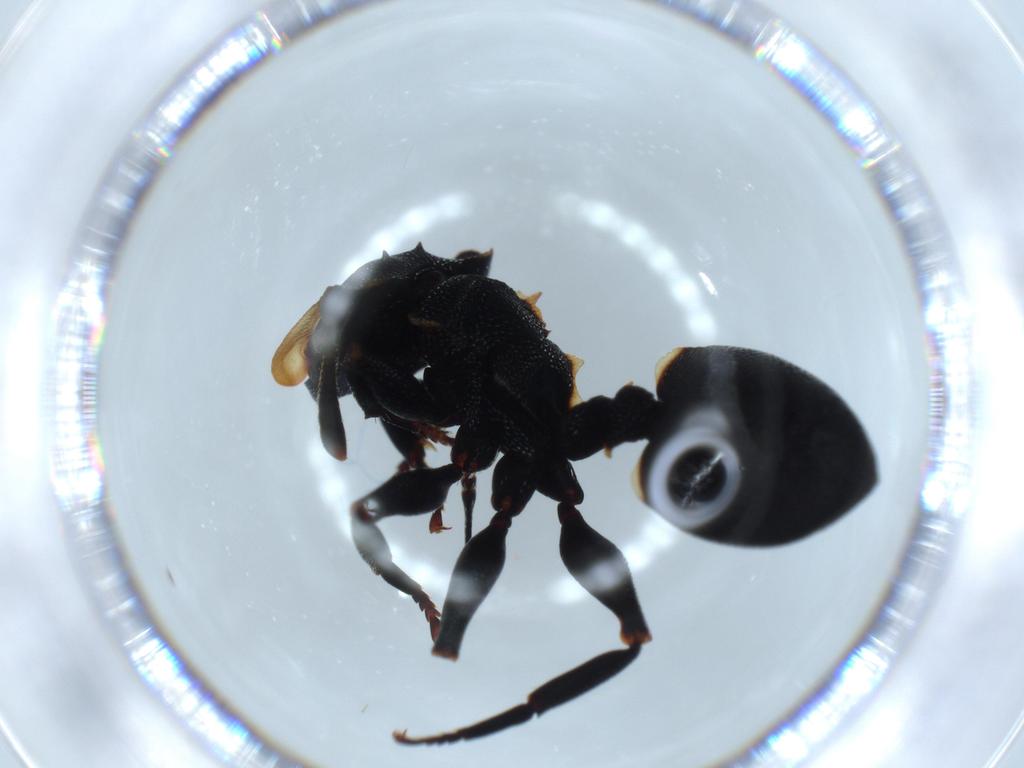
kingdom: Animalia
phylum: Arthropoda
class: Insecta
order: Hymenoptera
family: Formicidae
